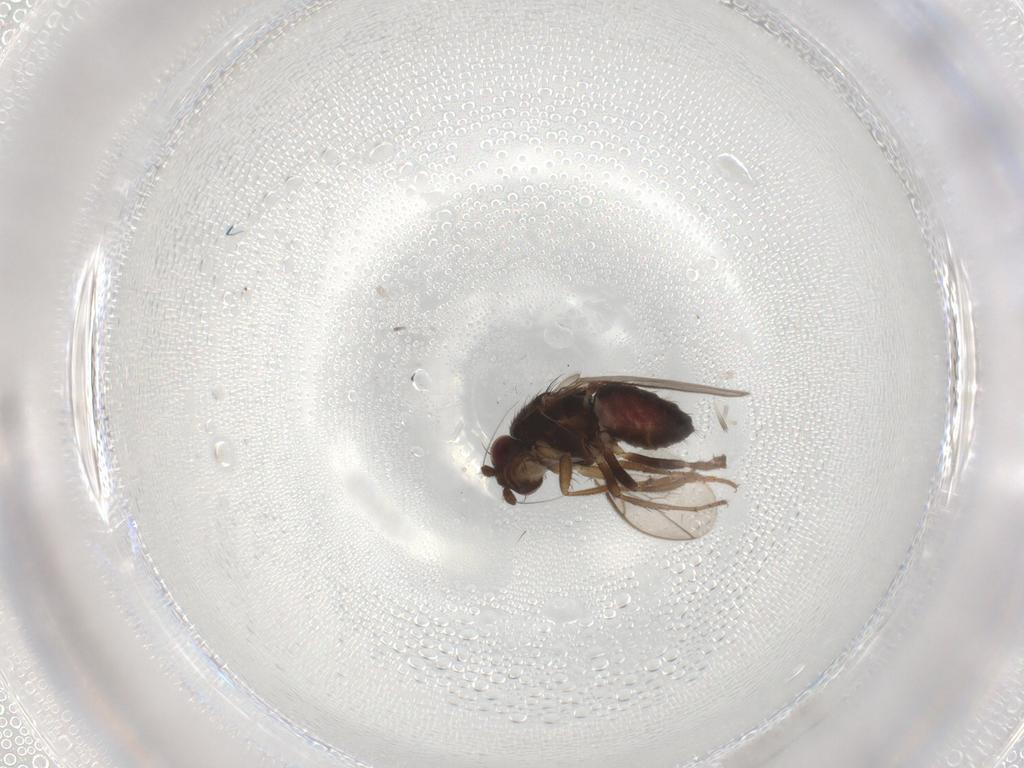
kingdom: Animalia
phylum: Arthropoda
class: Insecta
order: Diptera
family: Sphaeroceridae
